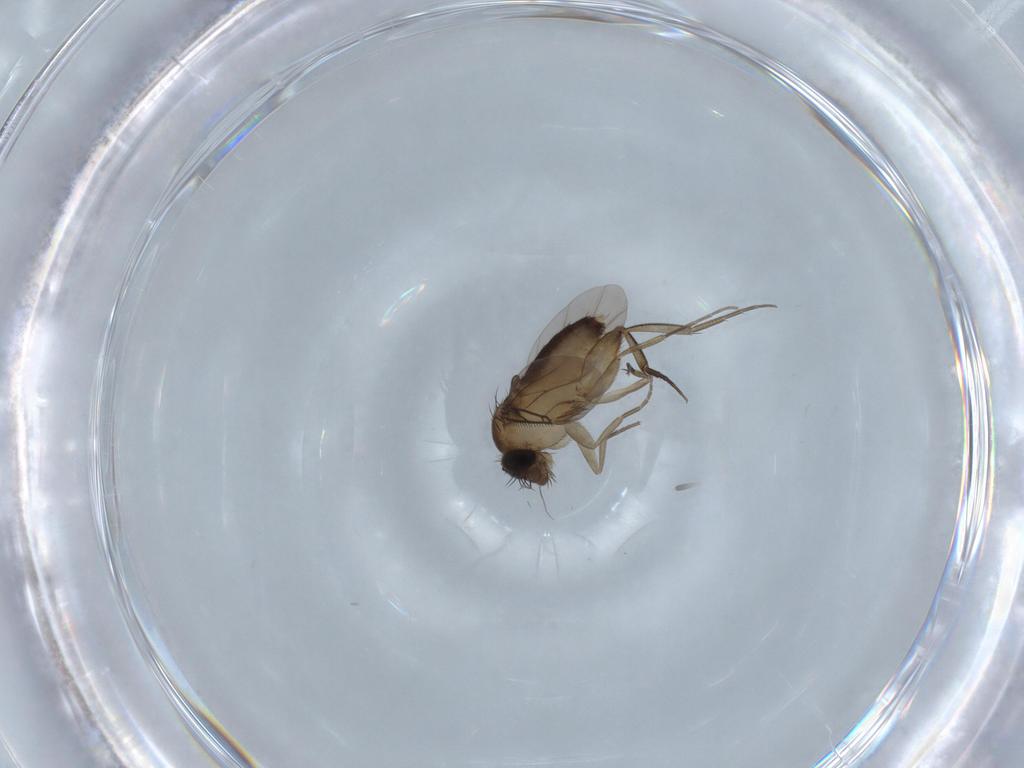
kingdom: Animalia
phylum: Arthropoda
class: Insecta
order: Diptera
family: Phoridae
